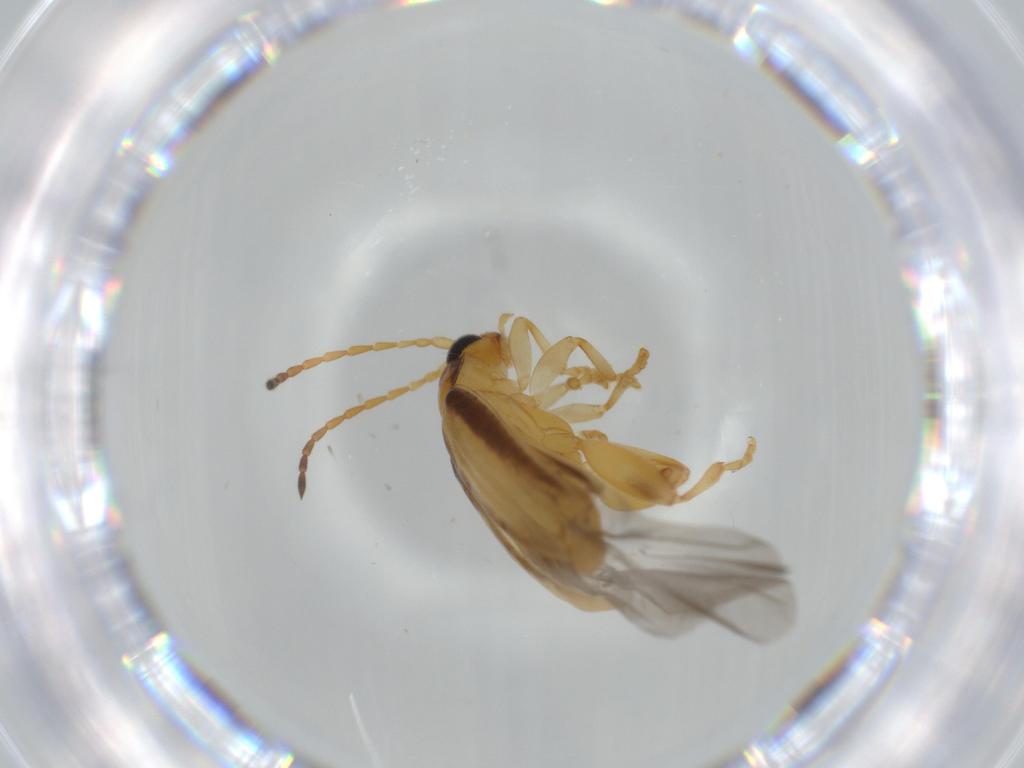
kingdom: Animalia
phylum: Arthropoda
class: Insecta
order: Coleoptera
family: Chrysomelidae
